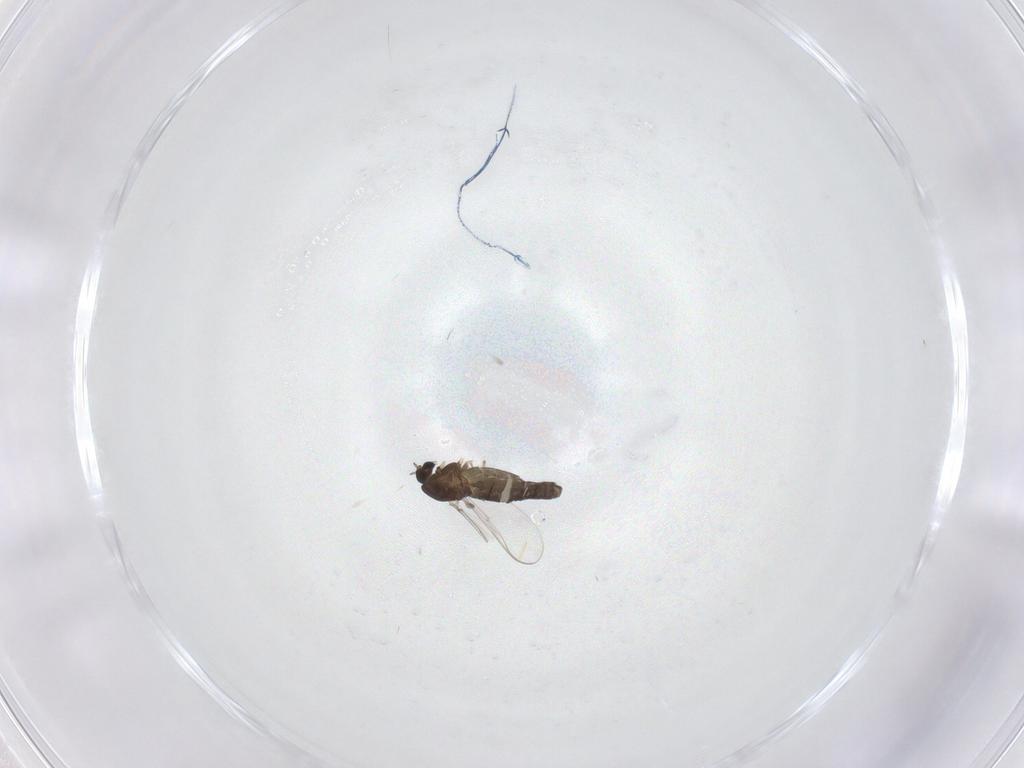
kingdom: Animalia
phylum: Arthropoda
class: Insecta
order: Diptera
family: Chironomidae
